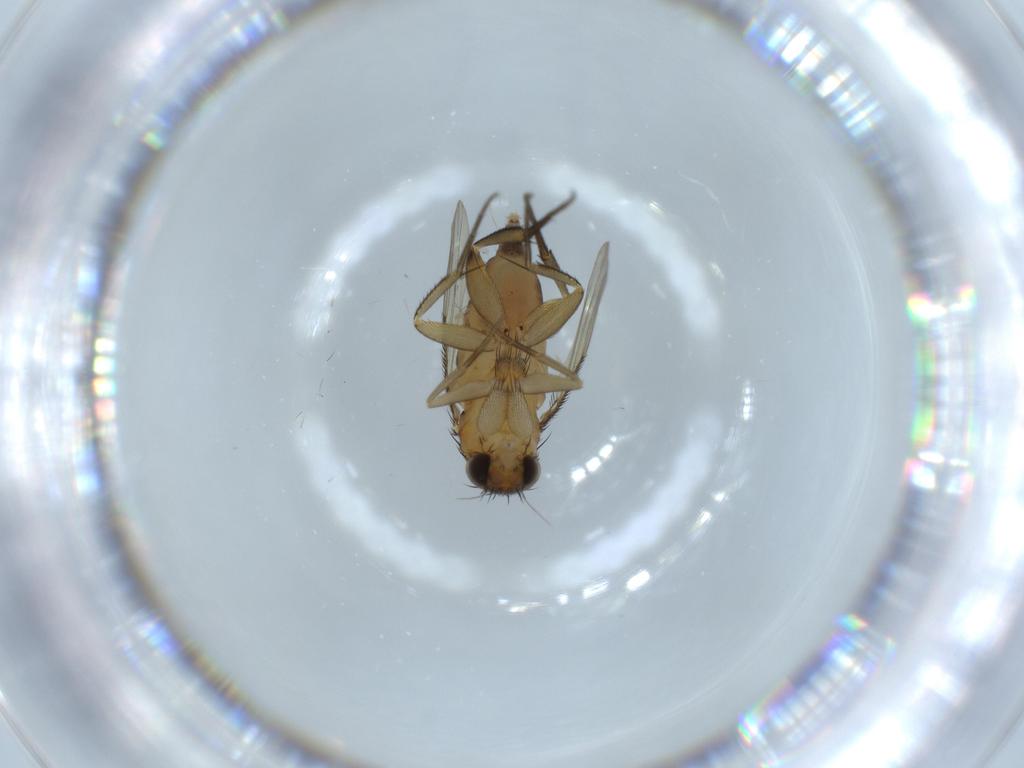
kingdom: Animalia
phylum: Arthropoda
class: Insecta
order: Diptera
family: Phoridae
